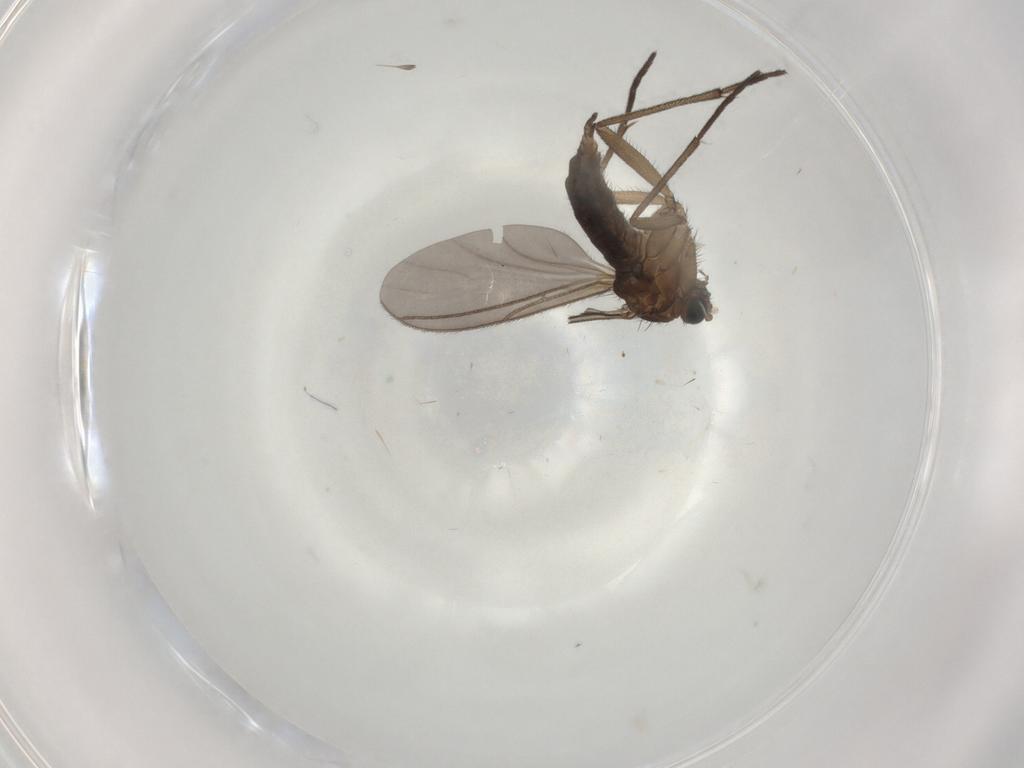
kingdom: Animalia
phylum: Arthropoda
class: Insecta
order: Diptera
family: Sciaridae
